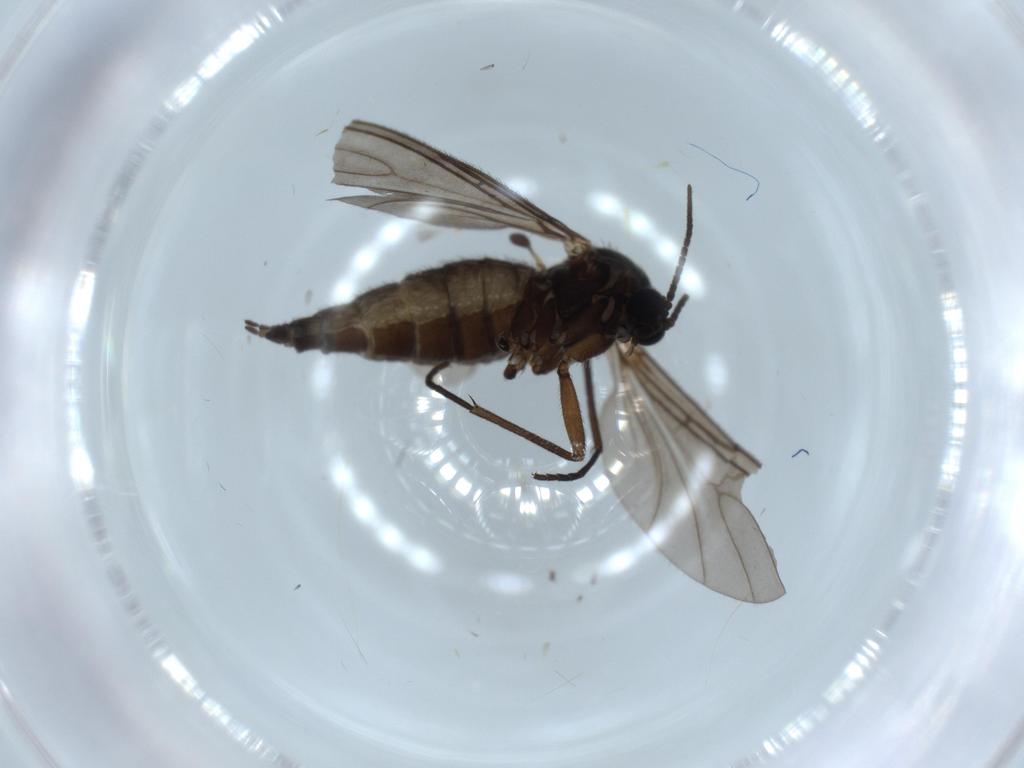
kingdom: Animalia
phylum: Arthropoda
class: Insecta
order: Diptera
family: Sciaridae
